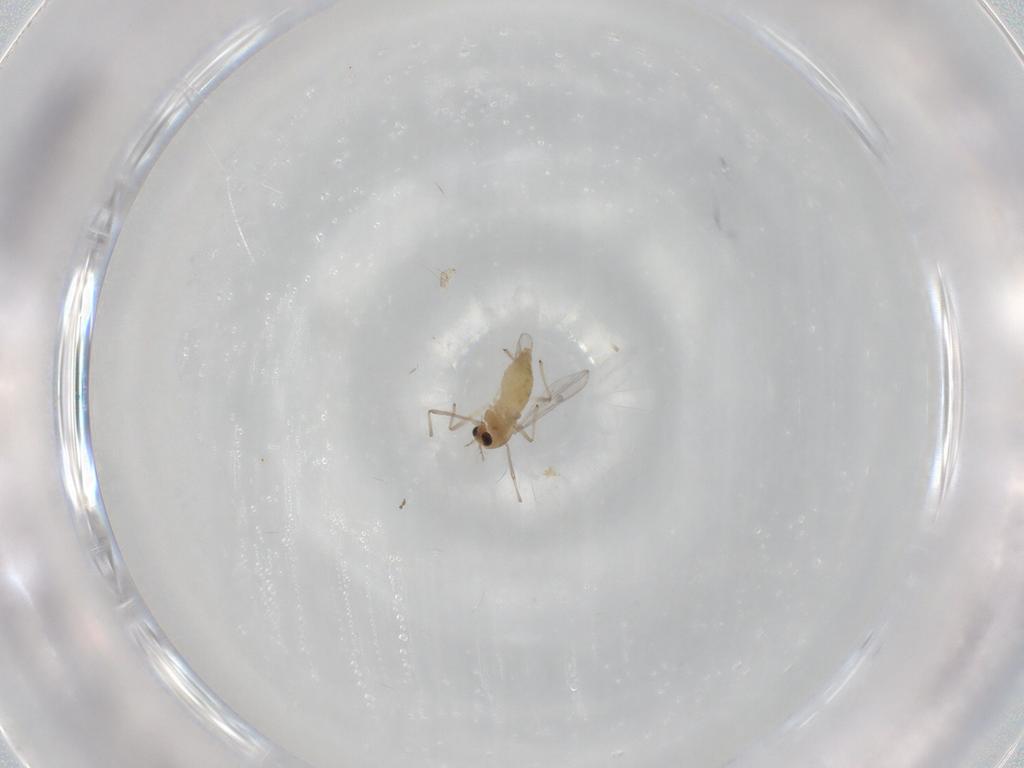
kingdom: Animalia
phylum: Arthropoda
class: Insecta
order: Diptera
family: Chironomidae
